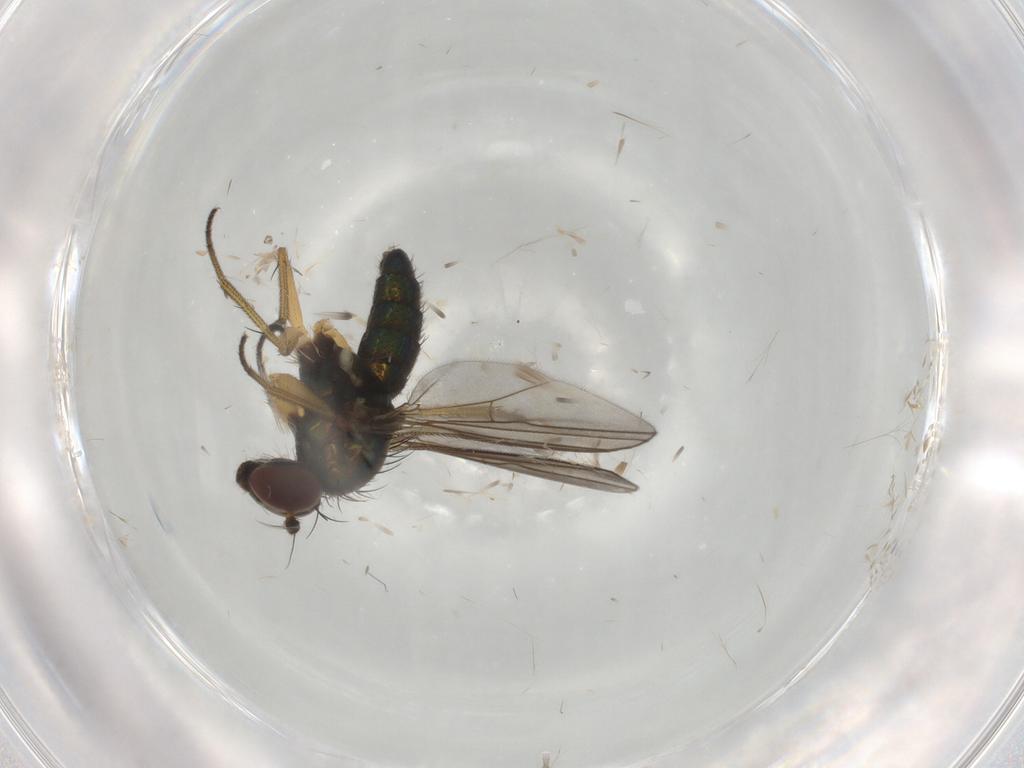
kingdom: Animalia
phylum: Arthropoda
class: Insecta
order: Diptera
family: Dolichopodidae
